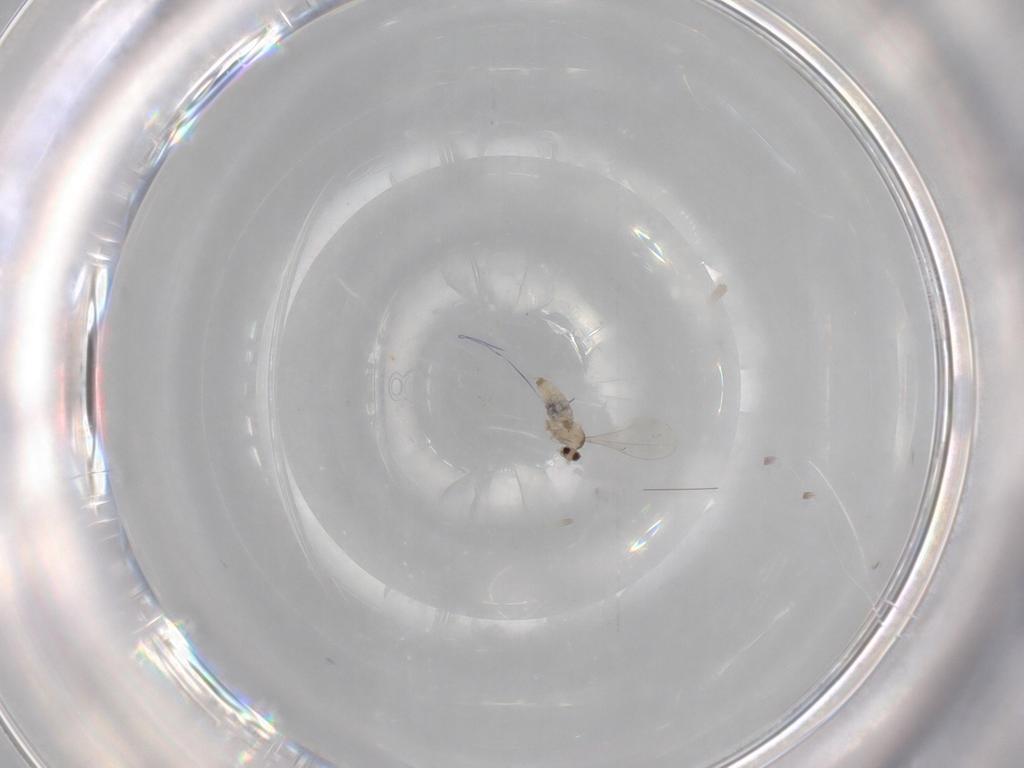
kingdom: Animalia
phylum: Arthropoda
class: Insecta
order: Diptera
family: Cecidomyiidae
